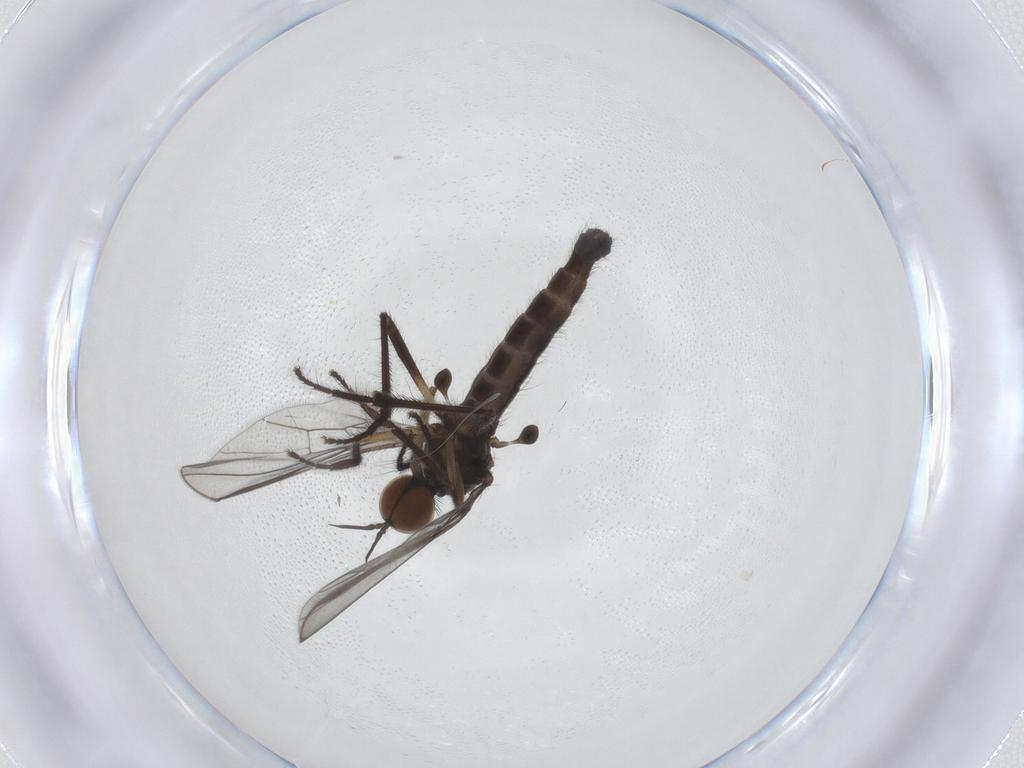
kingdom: Animalia
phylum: Arthropoda
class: Insecta
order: Diptera
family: Empididae
